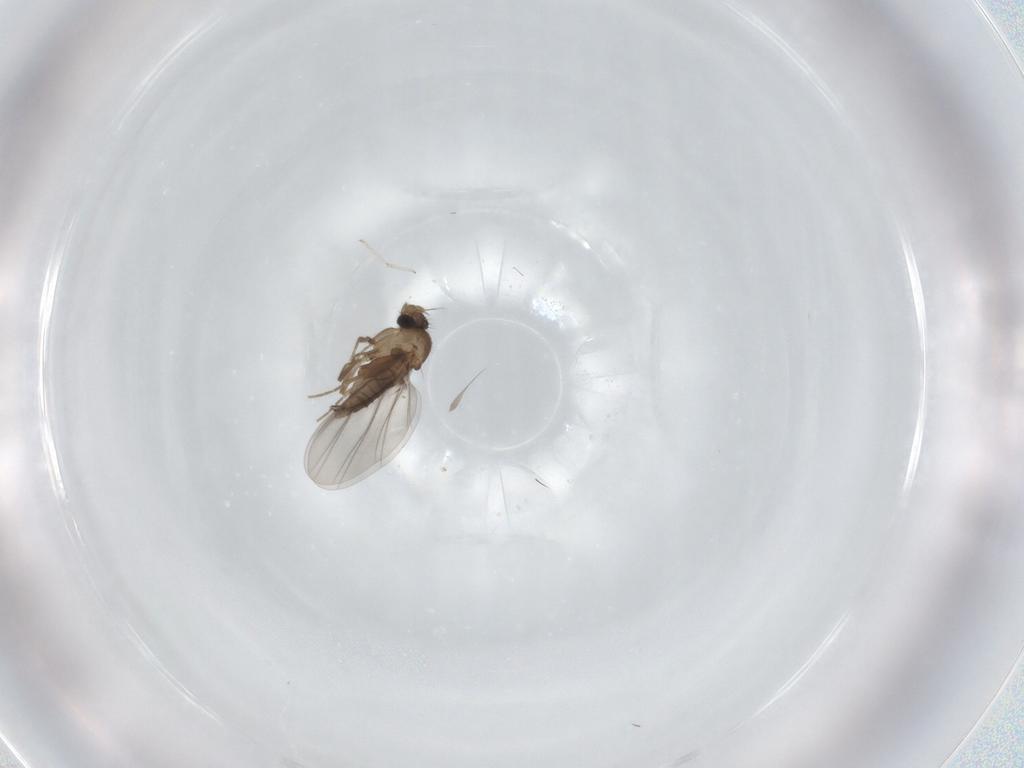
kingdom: Animalia
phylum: Arthropoda
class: Insecta
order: Diptera
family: Sciaridae
